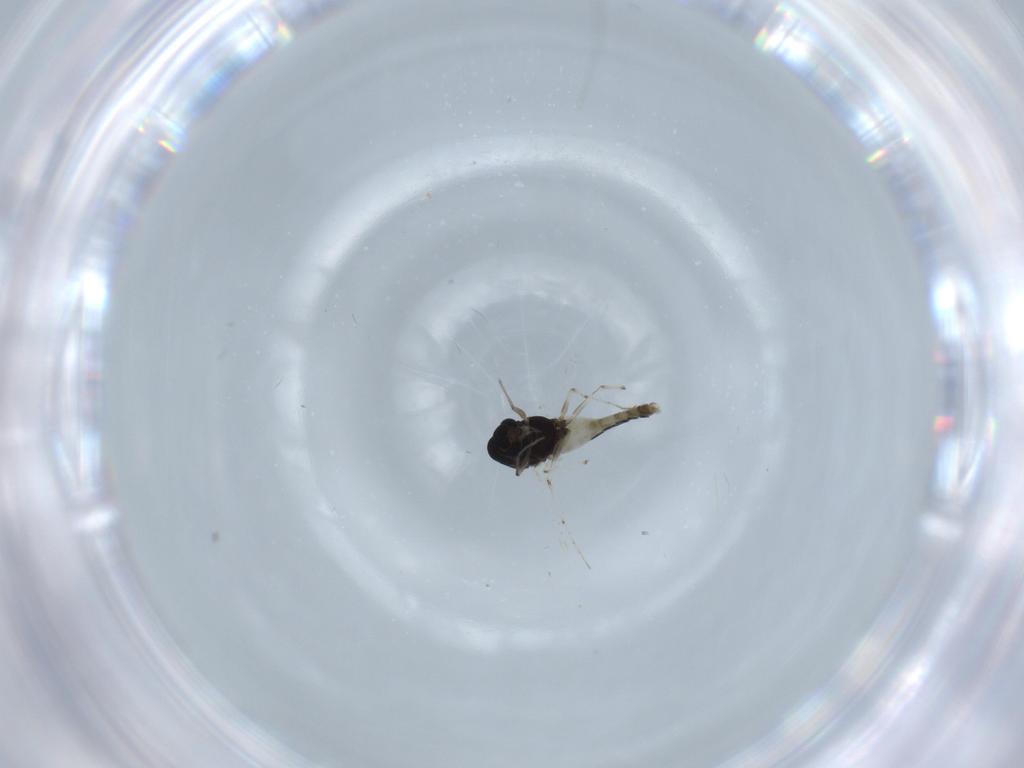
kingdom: Animalia
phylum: Arthropoda
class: Insecta
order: Diptera
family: Chironomidae
